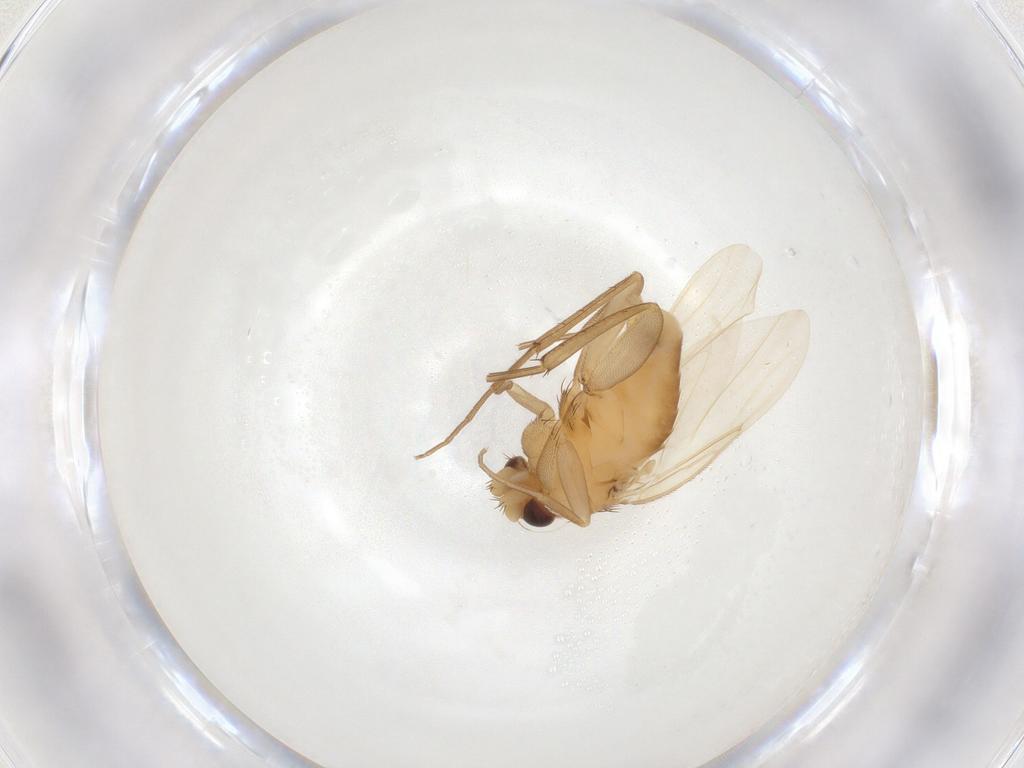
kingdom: Animalia
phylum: Arthropoda
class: Insecta
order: Diptera
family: Phoridae
